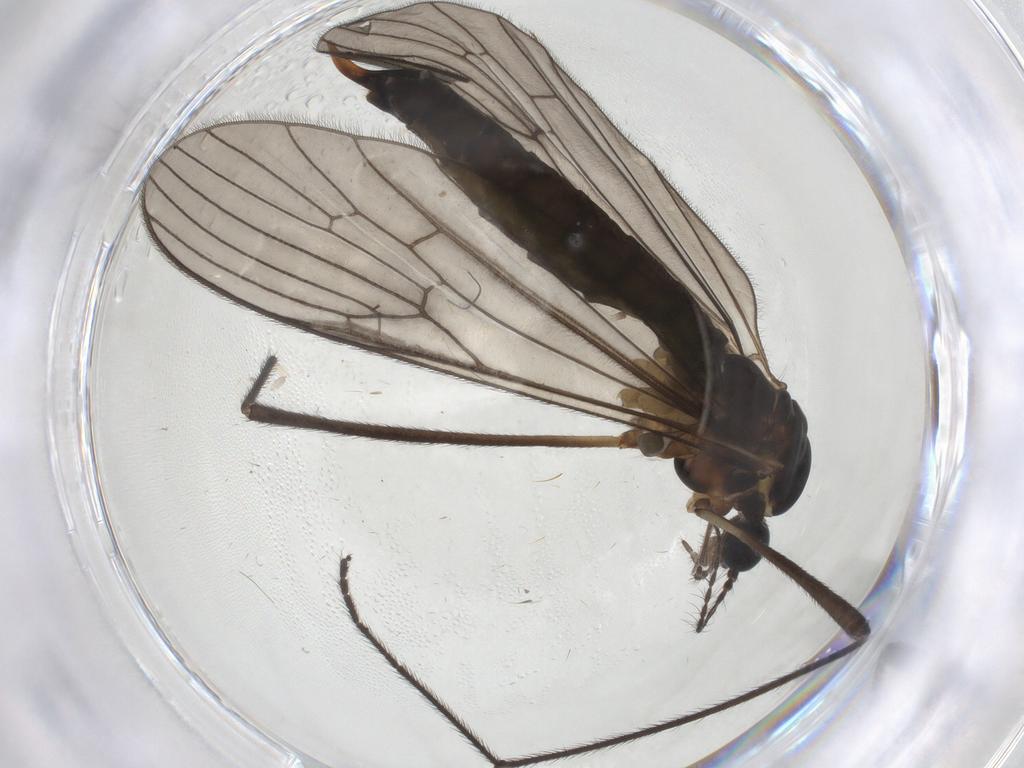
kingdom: Animalia
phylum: Arthropoda
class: Insecta
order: Diptera
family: Limoniidae
